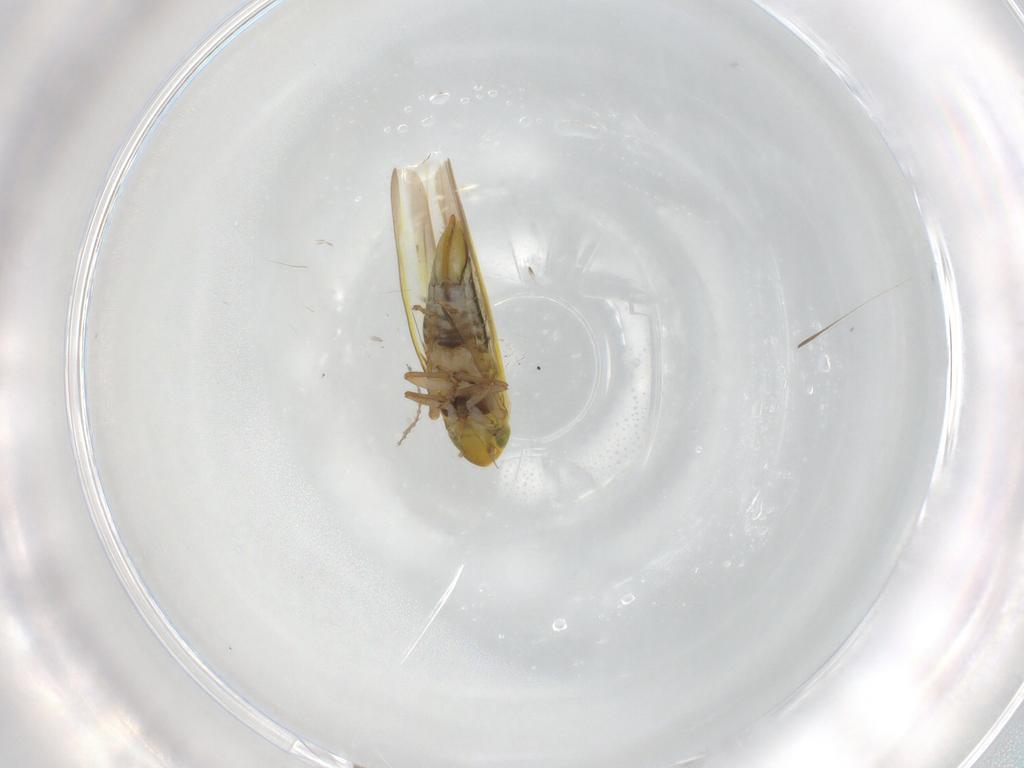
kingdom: Animalia
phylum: Arthropoda
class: Insecta
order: Hemiptera
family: Cicadellidae
